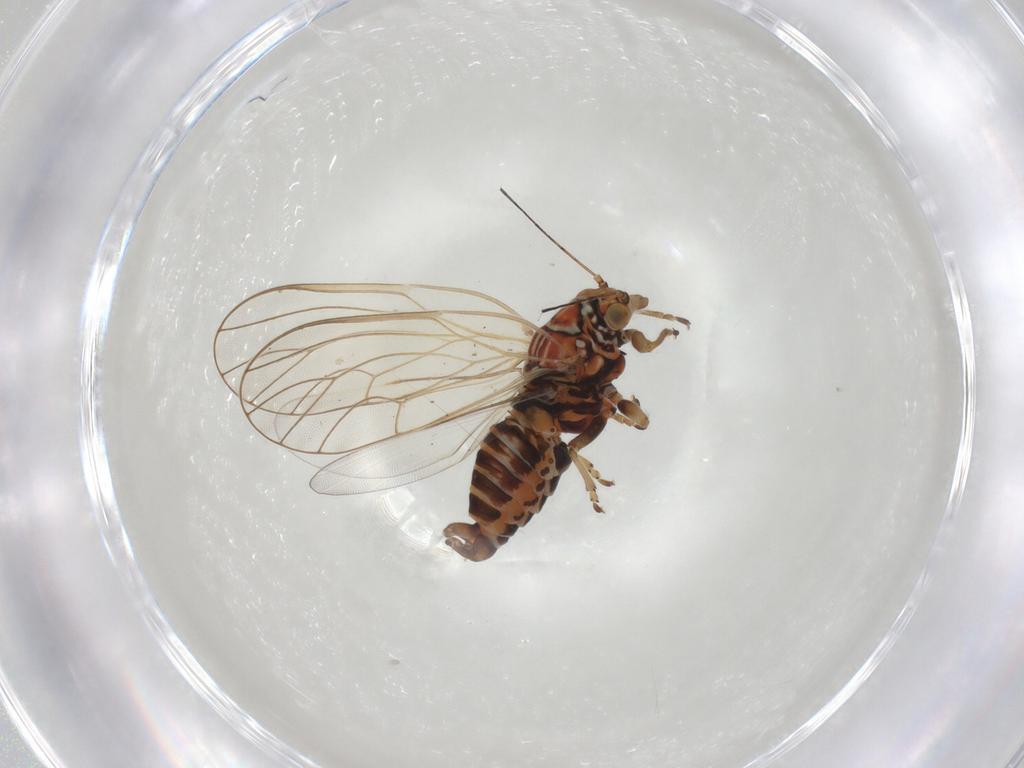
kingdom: Animalia
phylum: Arthropoda
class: Insecta
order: Hemiptera
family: Psyllidae
